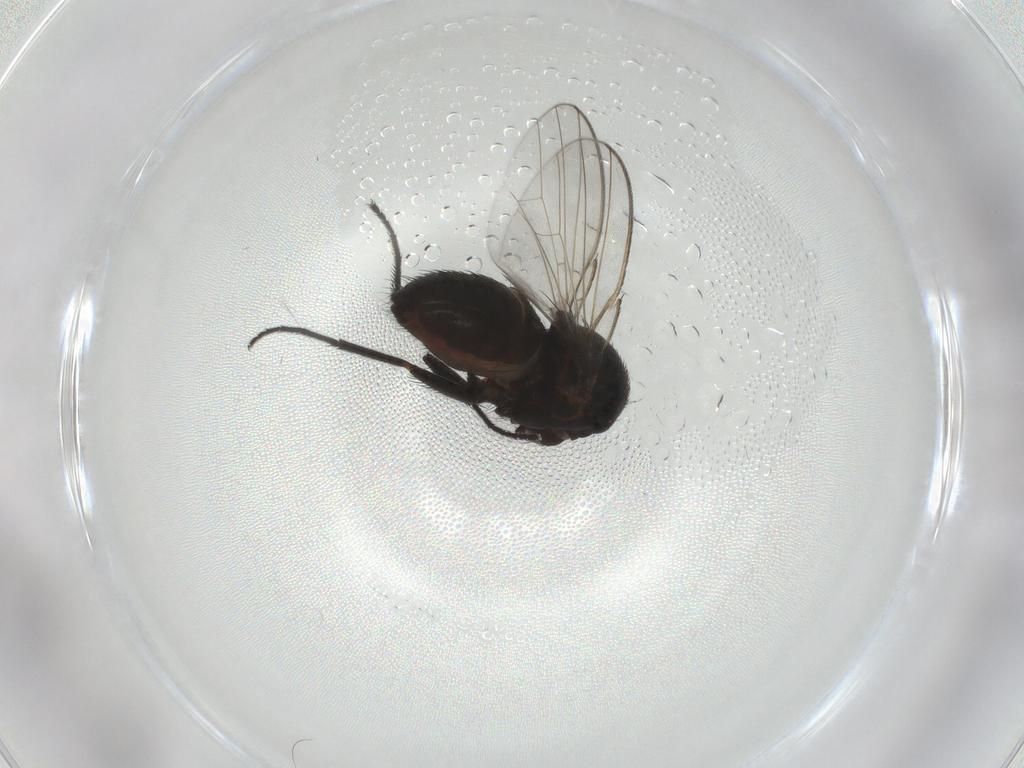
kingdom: Animalia
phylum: Arthropoda
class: Insecta
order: Diptera
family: Milichiidae
